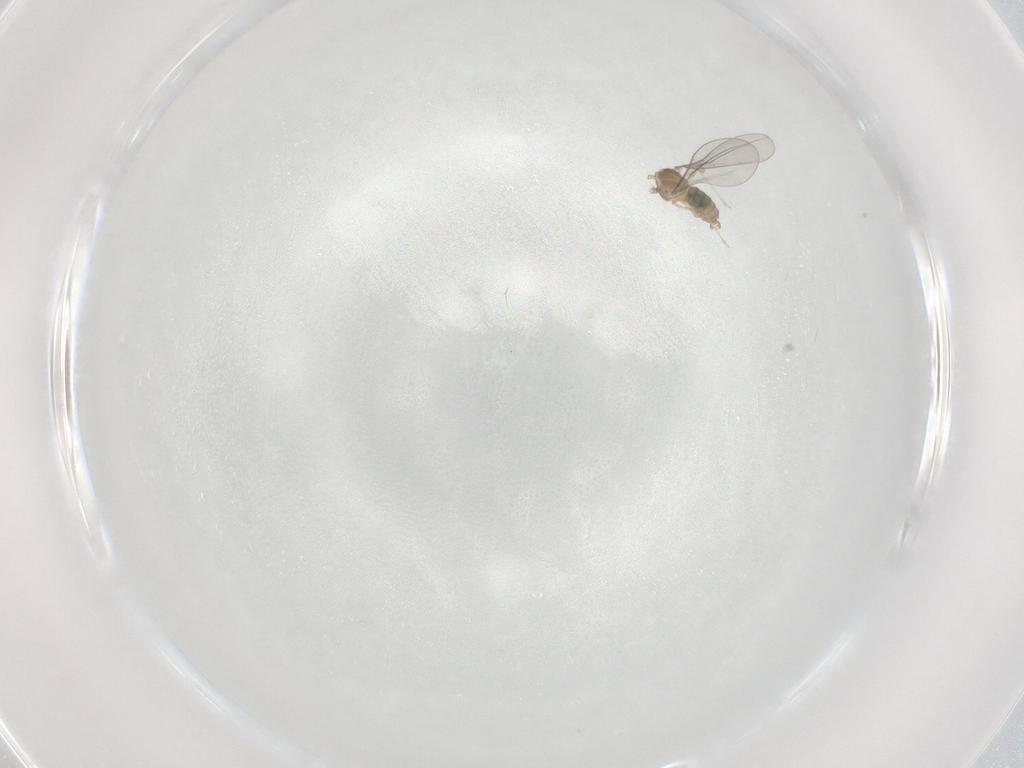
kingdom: Animalia
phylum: Arthropoda
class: Insecta
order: Diptera
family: Cecidomyiidae
